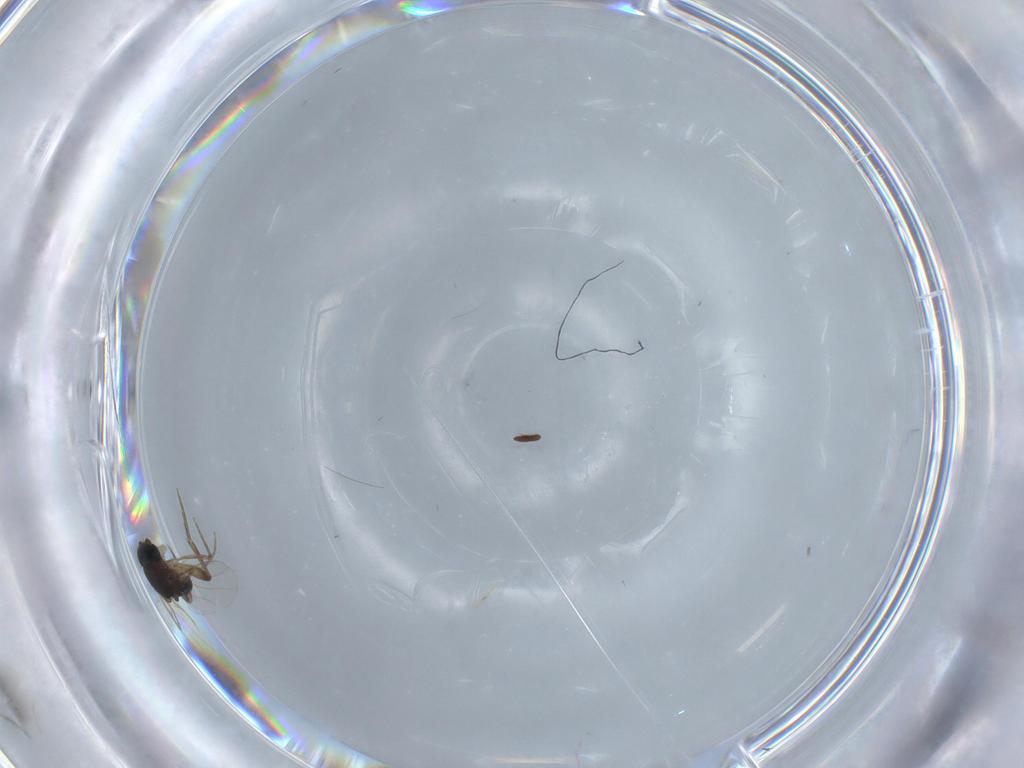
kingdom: Animalia
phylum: Arthropoda
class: Insecta
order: Diptera
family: Phoridae
